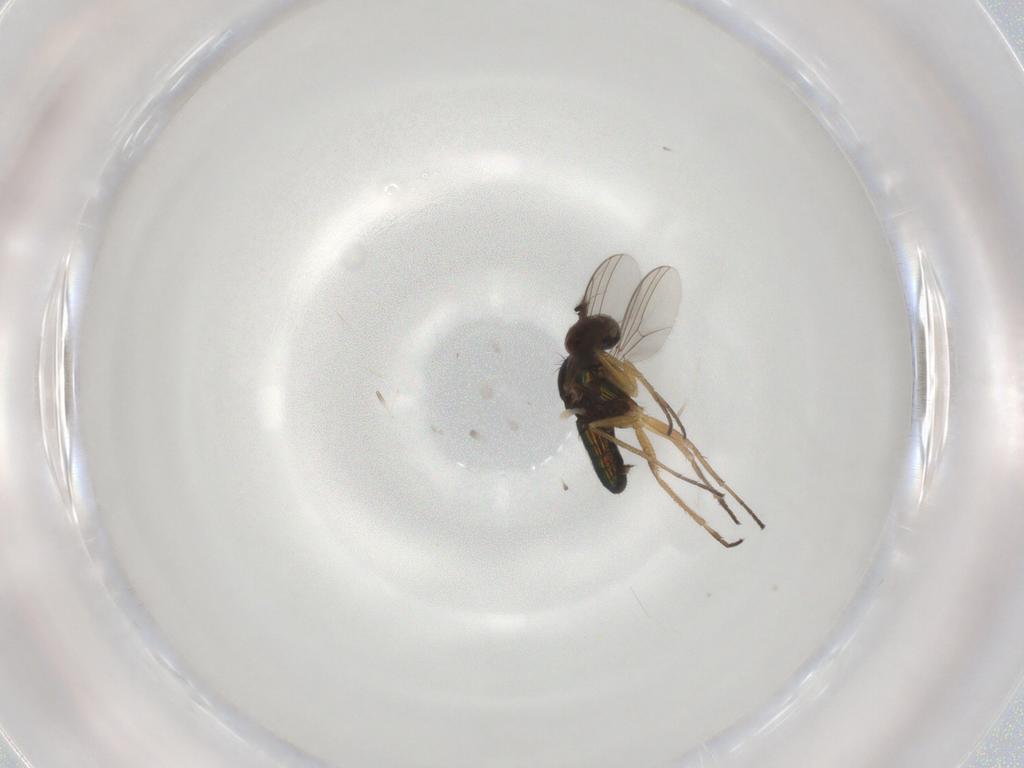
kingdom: Animalia
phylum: Arthropoda
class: Insecta
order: Diptera
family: Dolichopodidae
